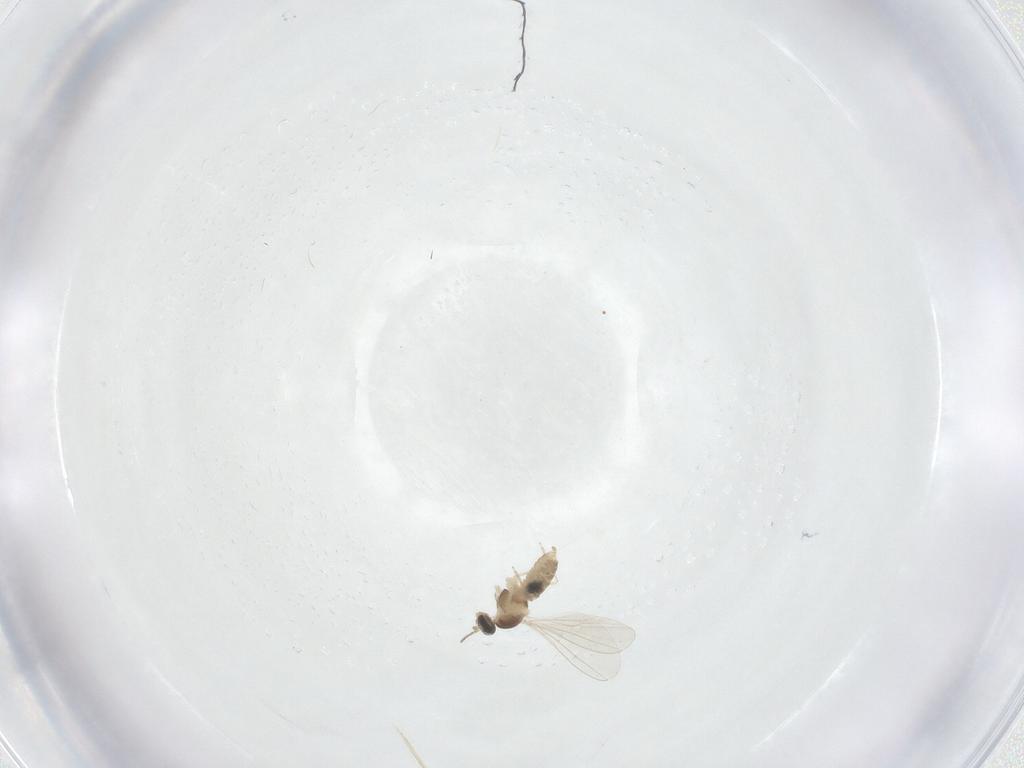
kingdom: Animalia
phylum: Arthropoda
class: Insecta
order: Diptera
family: Cecidomyiidae
